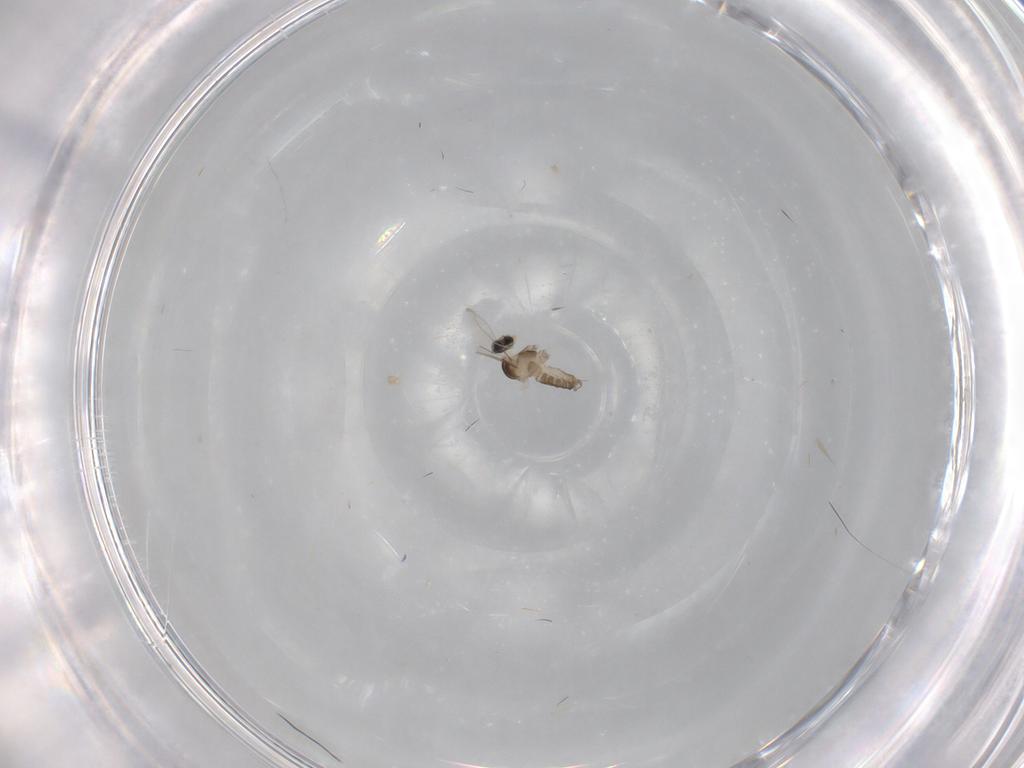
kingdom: Animalia
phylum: Arthropoda
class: Insecta
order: Diptera
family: Cecidomyiidae
